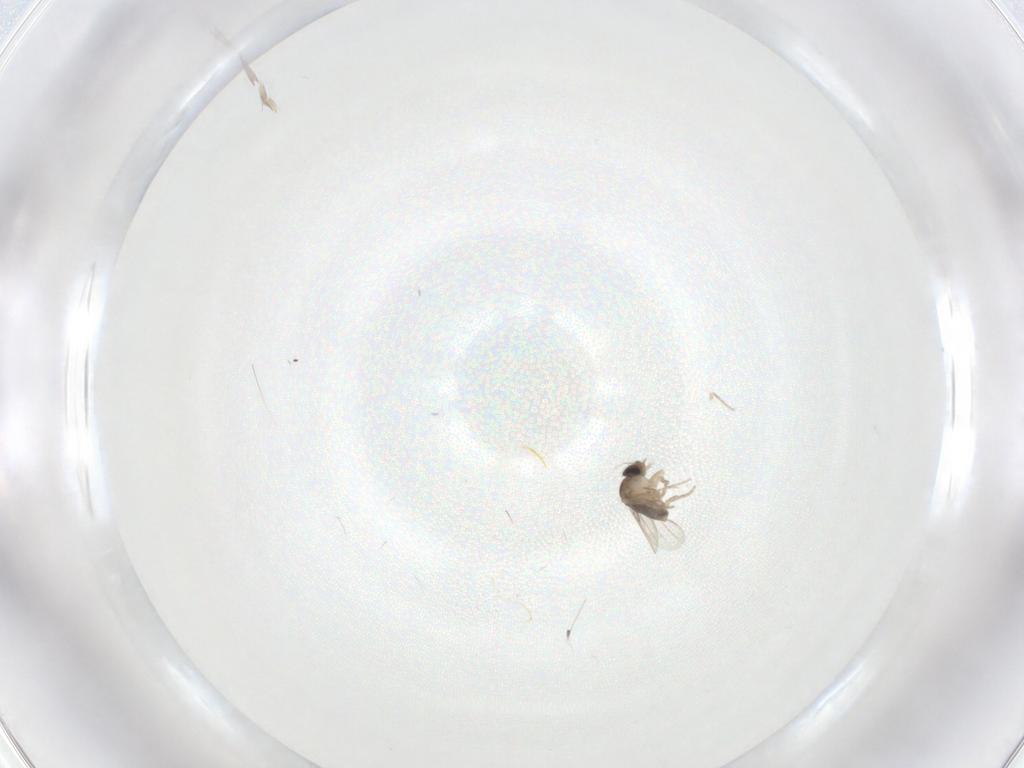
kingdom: Animalia
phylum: Arthropoda
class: Insecta
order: Diptera
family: Phoridae
